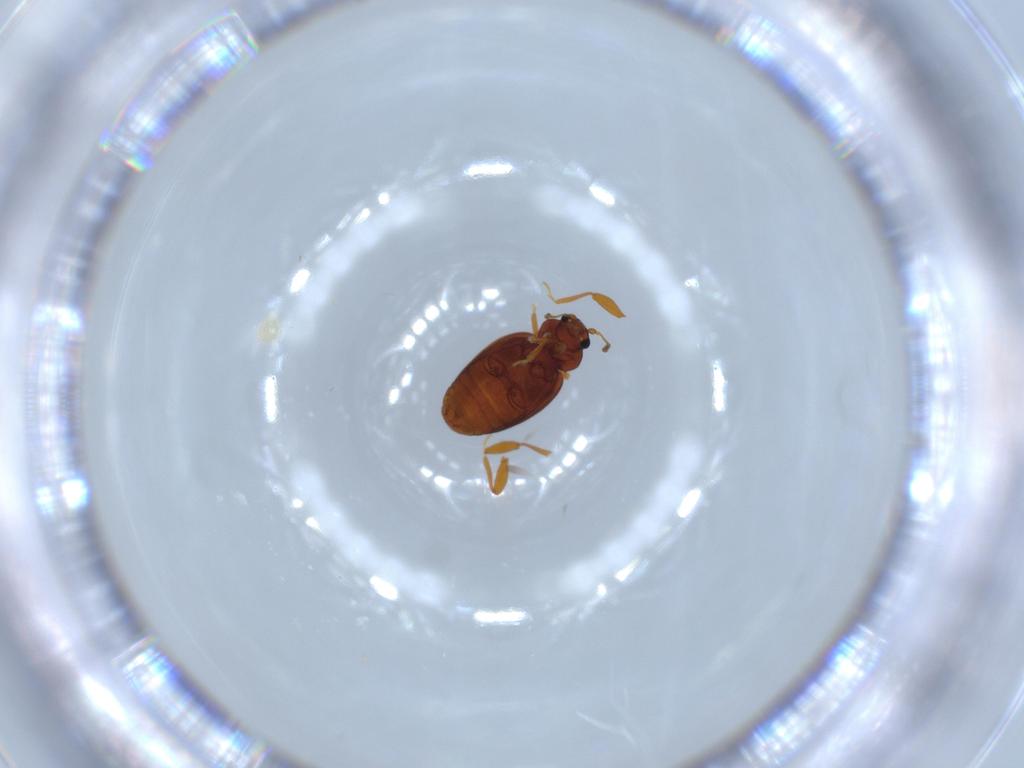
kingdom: Animalia
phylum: Arthropoda
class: Insecta
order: Coleoptera
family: Latridiidae
